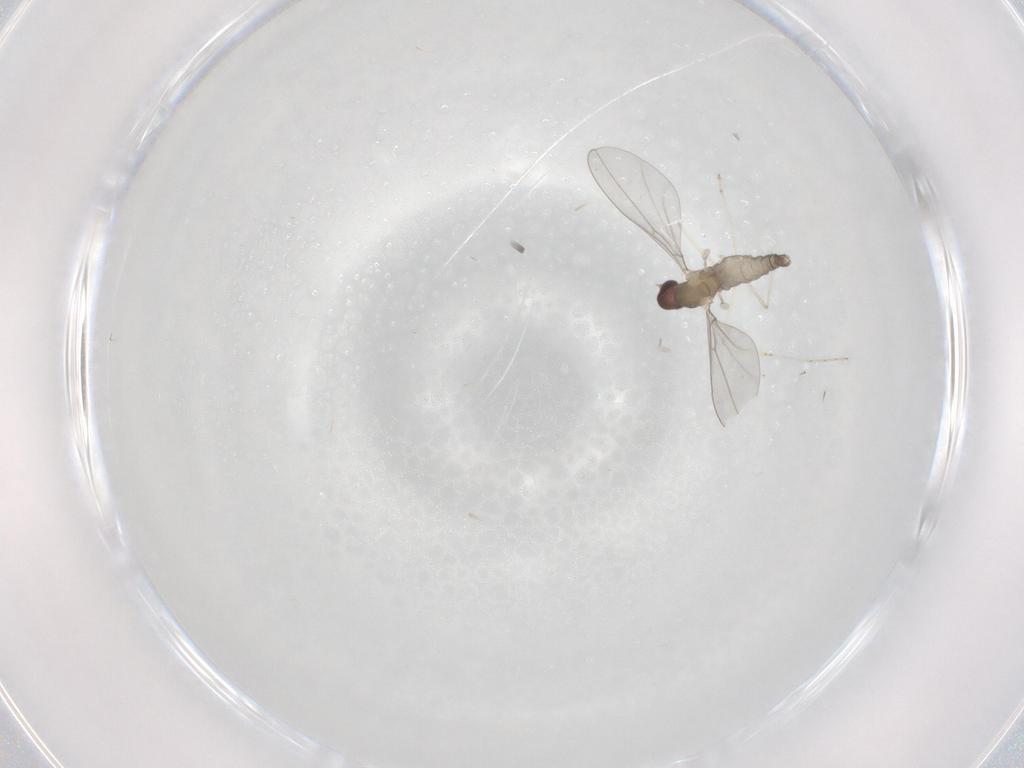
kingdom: Animalia
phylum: Arthropoda
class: Insecta
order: Diptera
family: Cecidomyiidae
